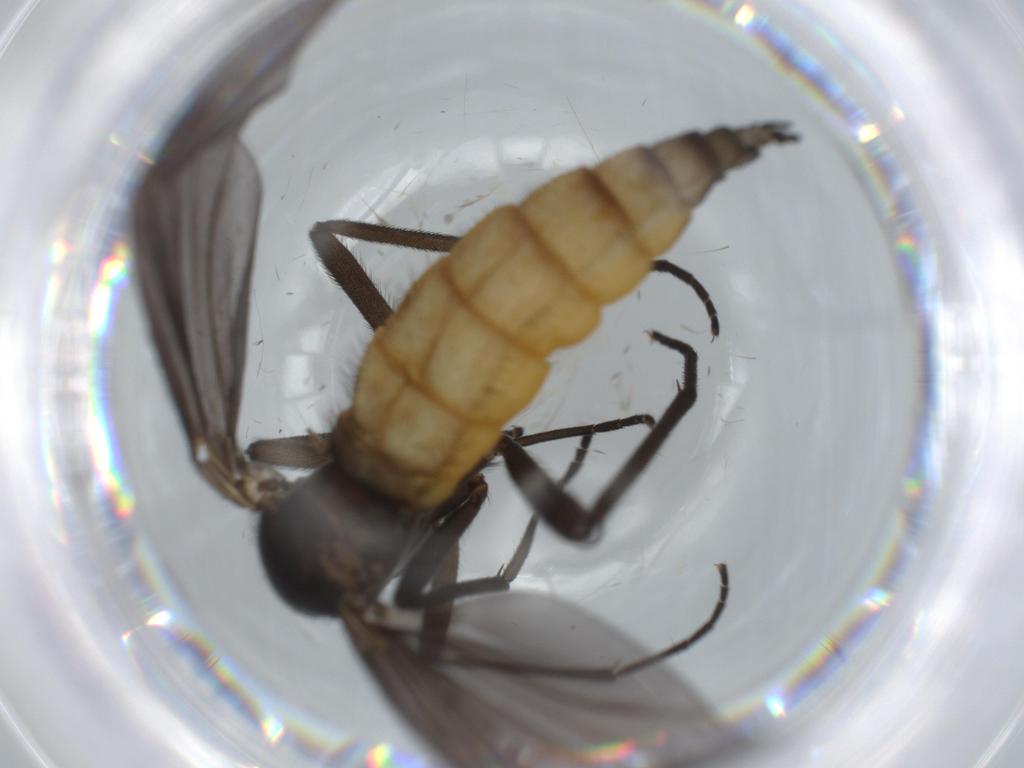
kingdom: Animalia
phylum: Arthropoda
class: Insecta
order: Diptera
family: Chironomidae
